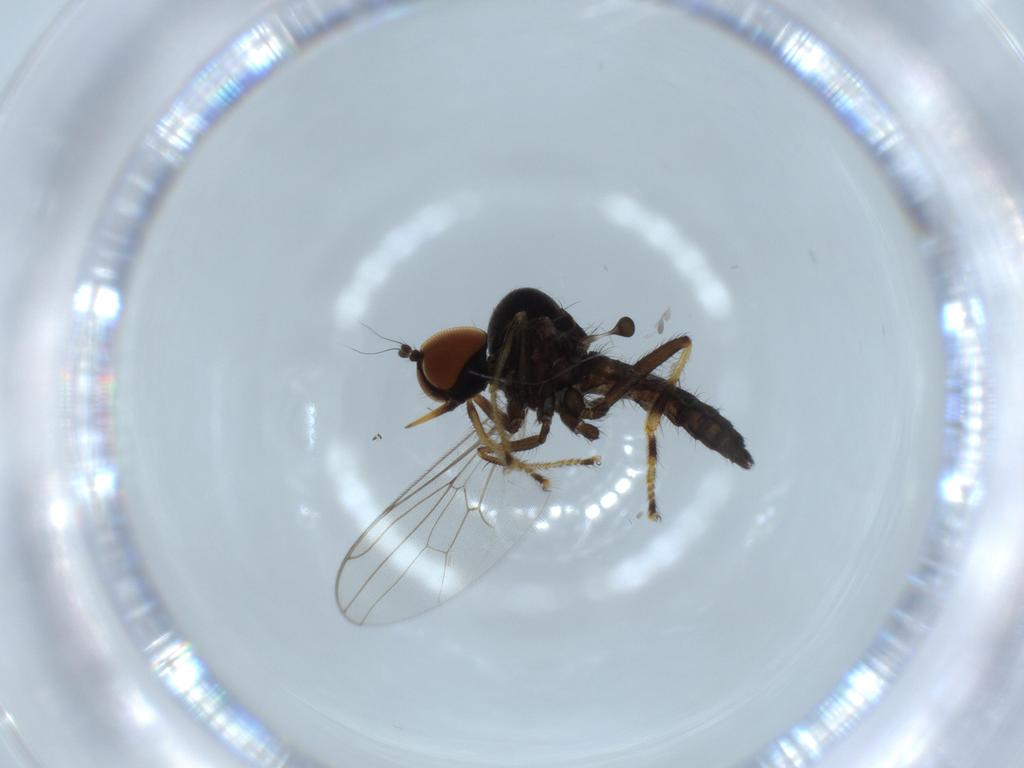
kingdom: Animalia
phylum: Arthropoda
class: Insecta
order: Diptera
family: Hybotidae
